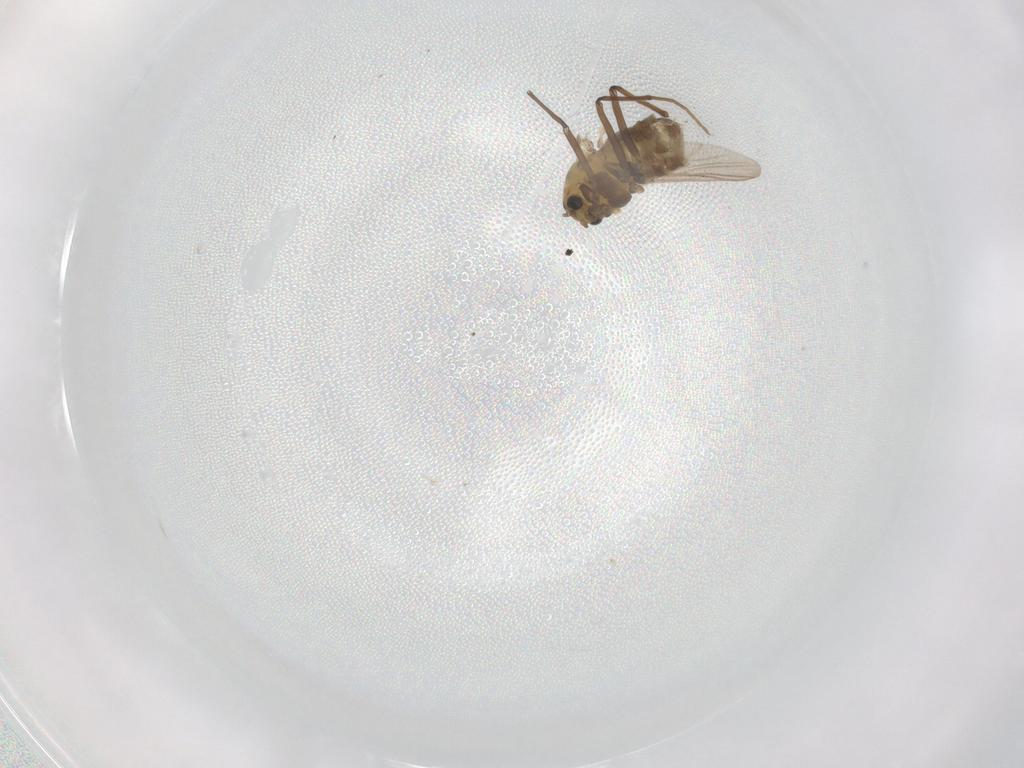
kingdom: Animalia
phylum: Arthropoda
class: Insecta
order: Diptera
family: Chironomidae
